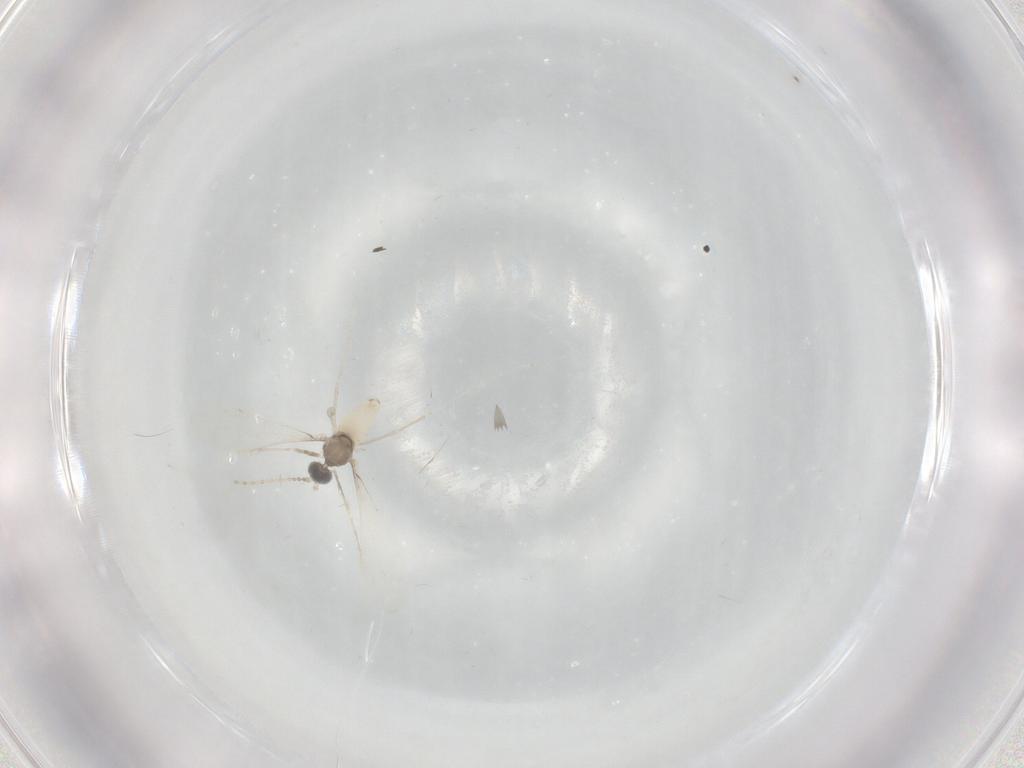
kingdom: Animalia
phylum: Arthropoda
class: Insecta
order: Diptera
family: Cecidomyiidae
